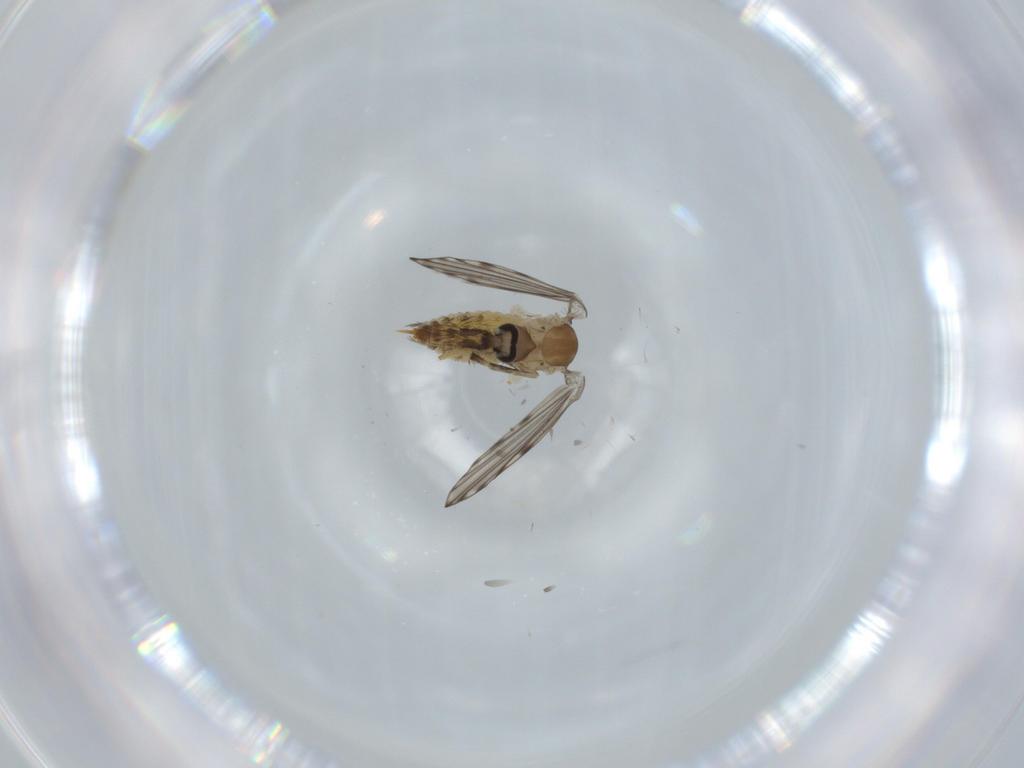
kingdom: Animalia
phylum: Arthropoda
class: Insecta
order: Diptera
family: Psychodidae
